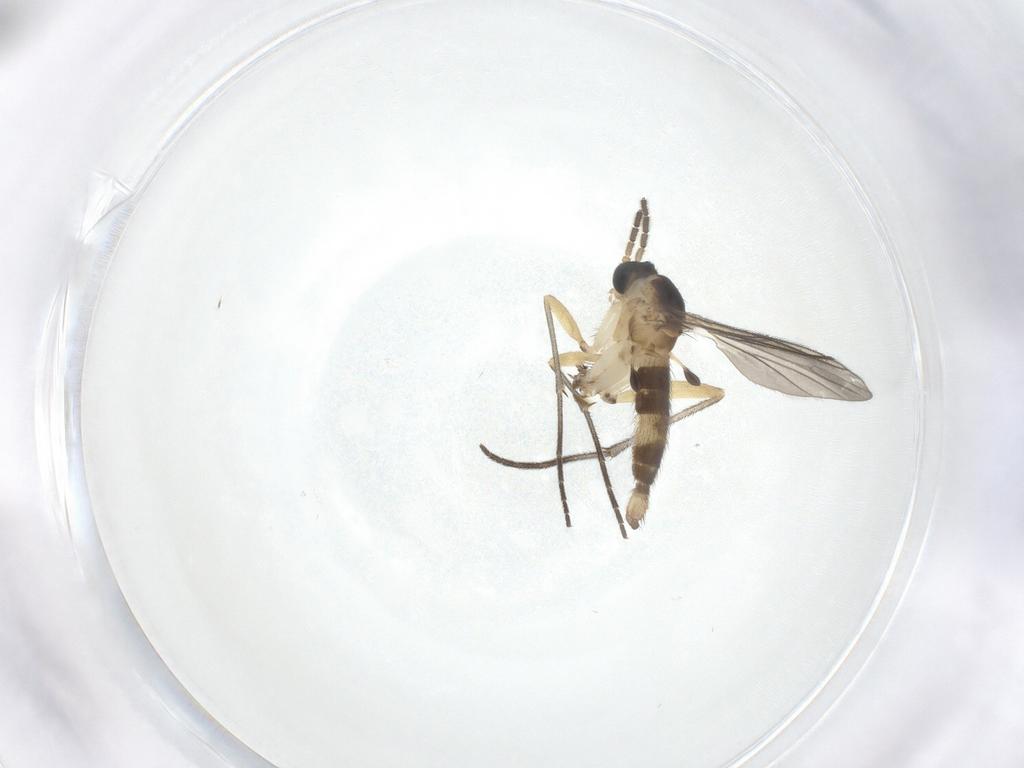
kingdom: Animalia
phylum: Arthropoda
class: Insecta
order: Diptera
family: Sciaridae
